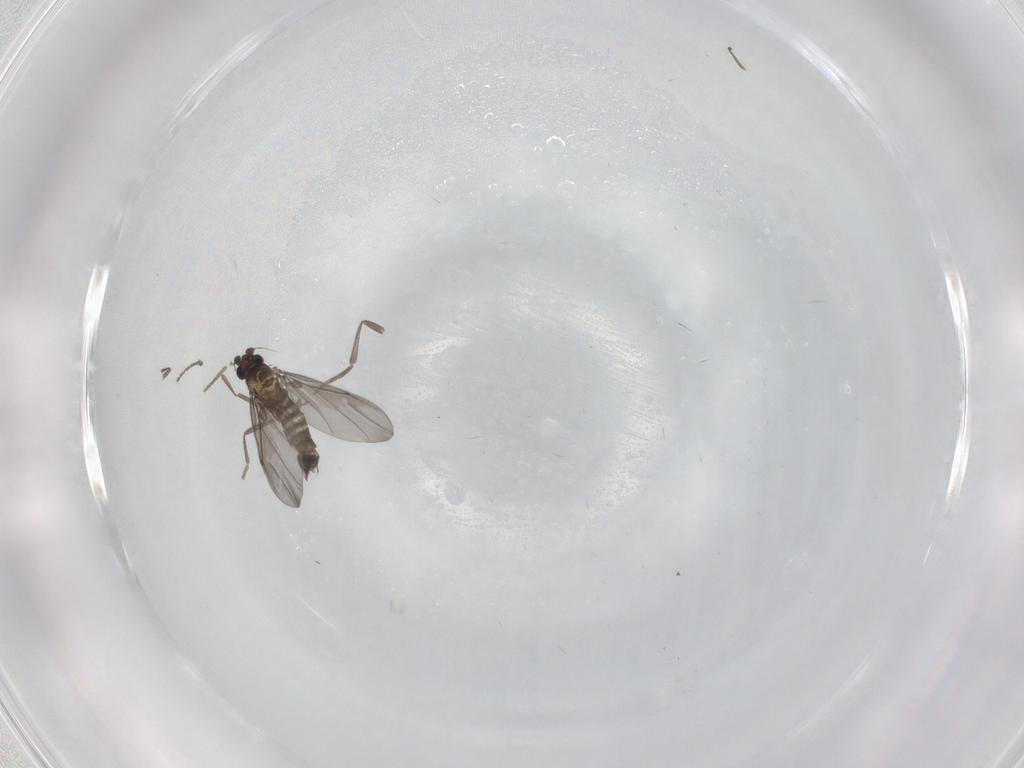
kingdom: Animalia
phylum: Arthropoda
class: Insecta
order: Diptera
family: Phoridae
